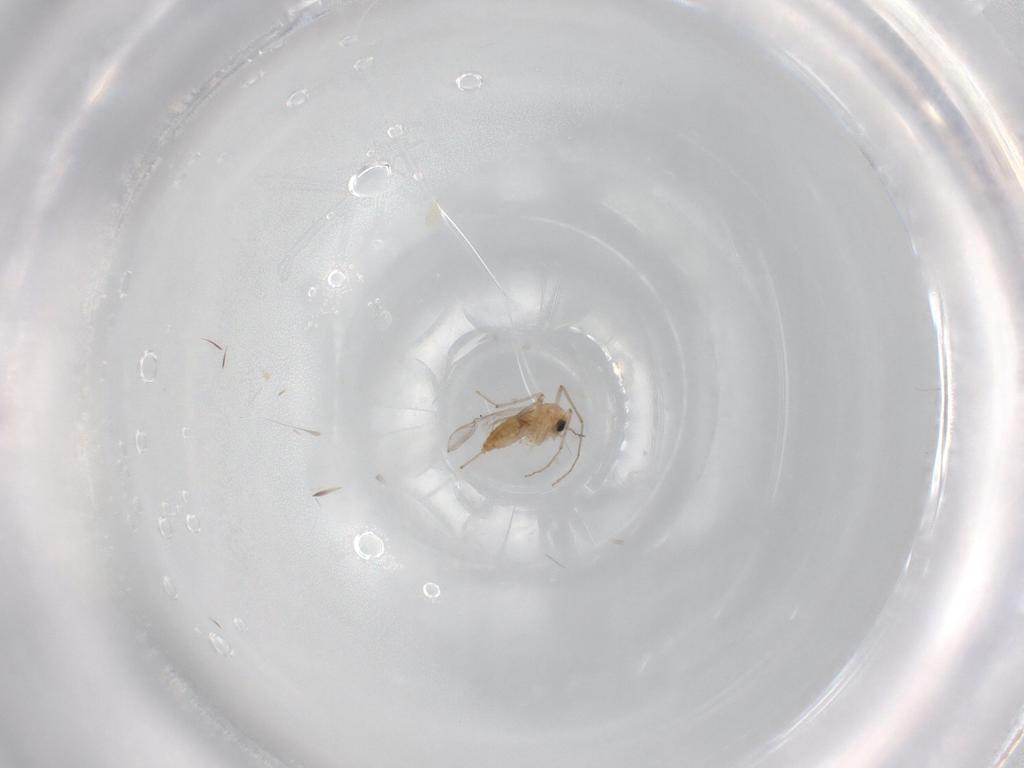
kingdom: Animalia
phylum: Arthropoda
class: Insecta
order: Diptera
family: Chironomidae
